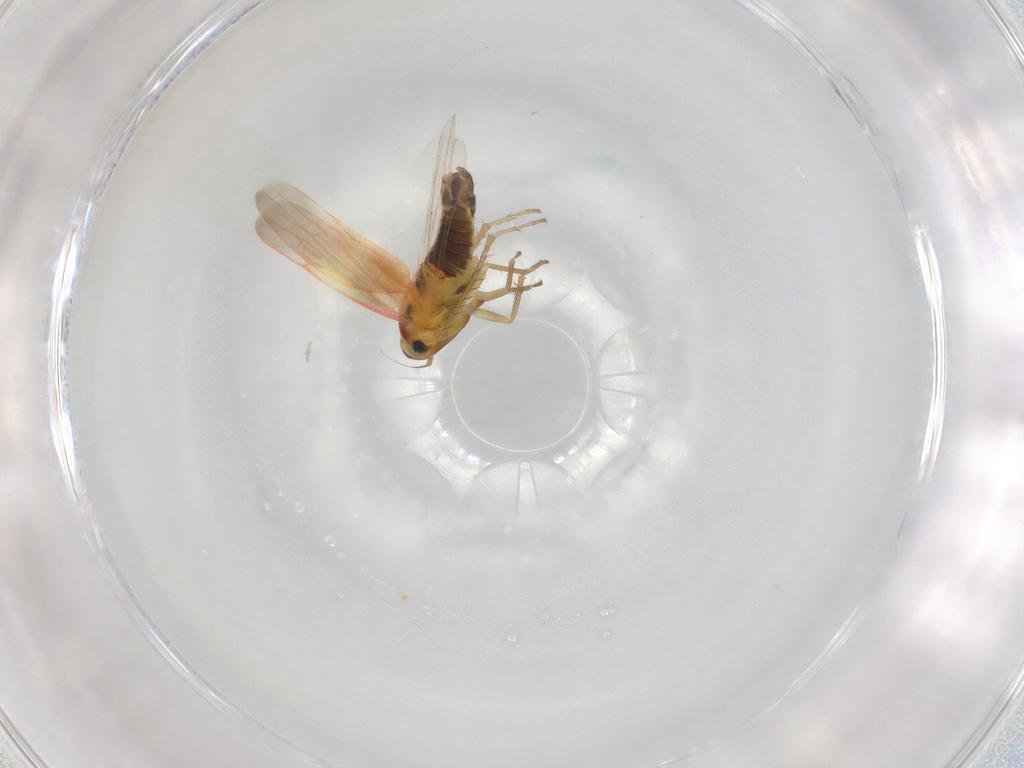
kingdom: Animalia
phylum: Arthropoda
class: Insecta
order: Hemiptera
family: Cicadellidae
